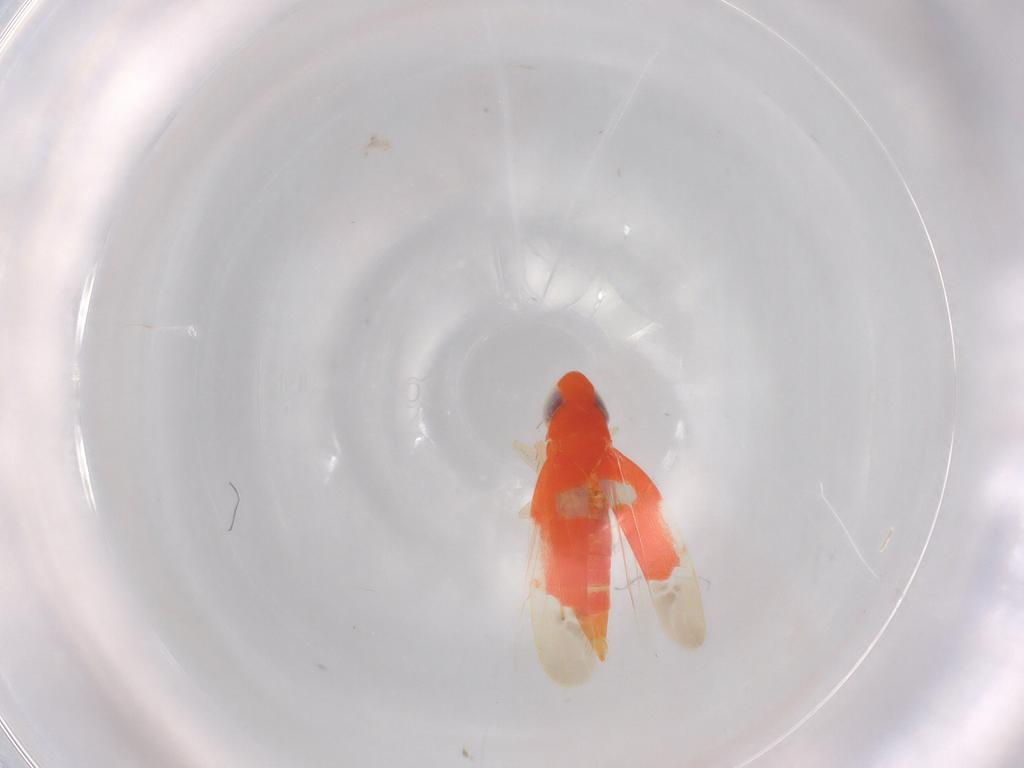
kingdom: Animalia
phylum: Arthropoda
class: Insecta
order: Hemiptera
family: Cicadellidae
